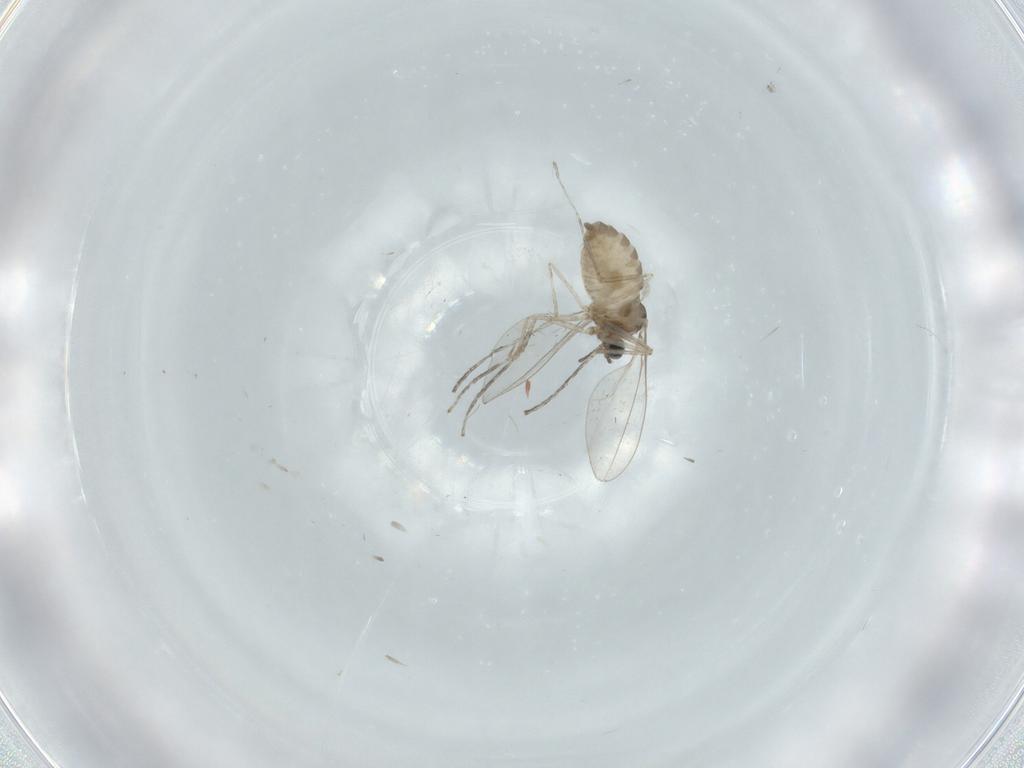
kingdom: Animalia
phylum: Arthropoda
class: Insecta
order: Diptera
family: Cecidomyiidae
